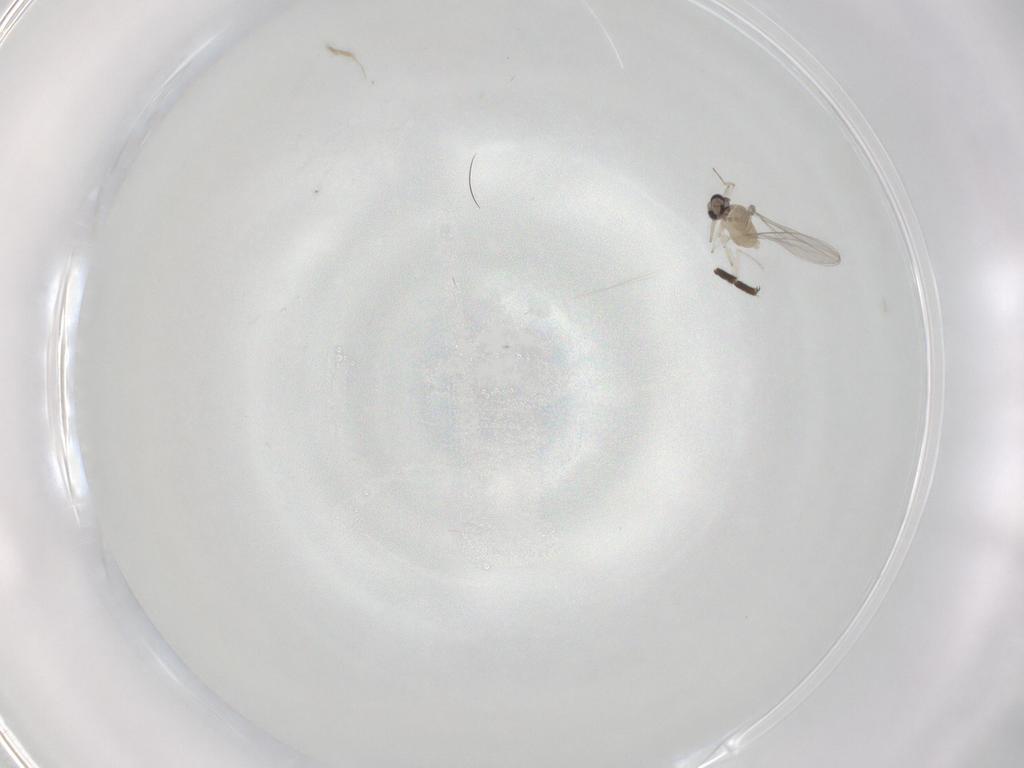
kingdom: Animalia
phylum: Arthropoda
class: Insecta
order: Diptera
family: Cecidomyiidae
